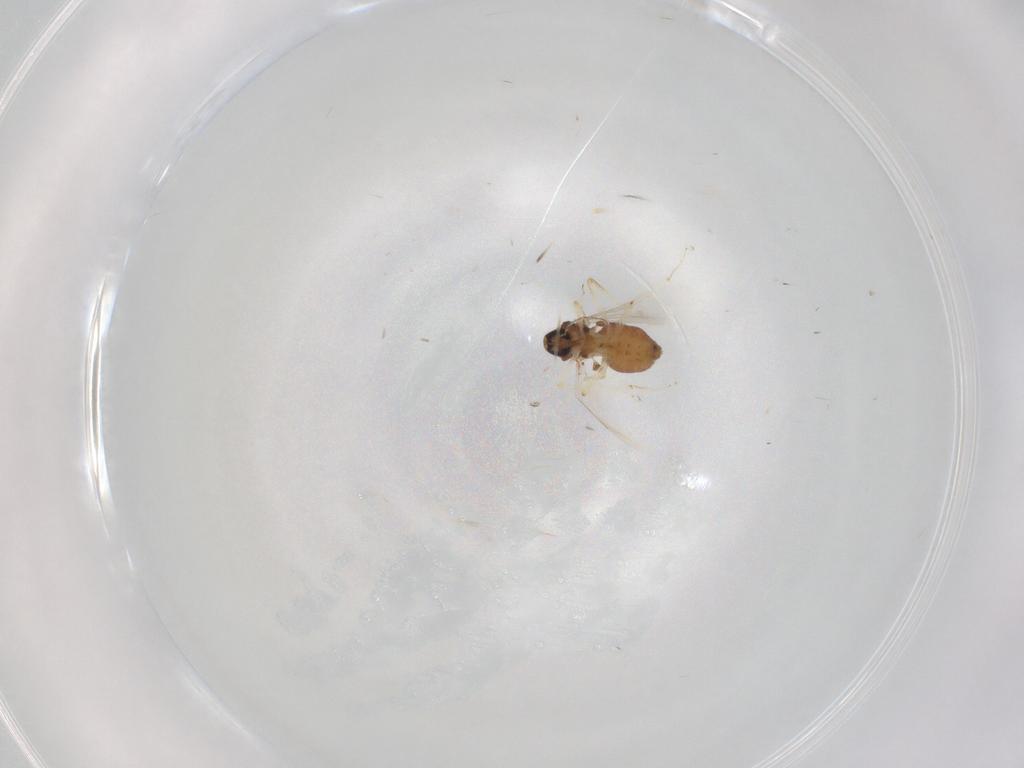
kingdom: Animalia
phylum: Arthropoda
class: Insecta
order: Diptera
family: Ceratopogonidae
